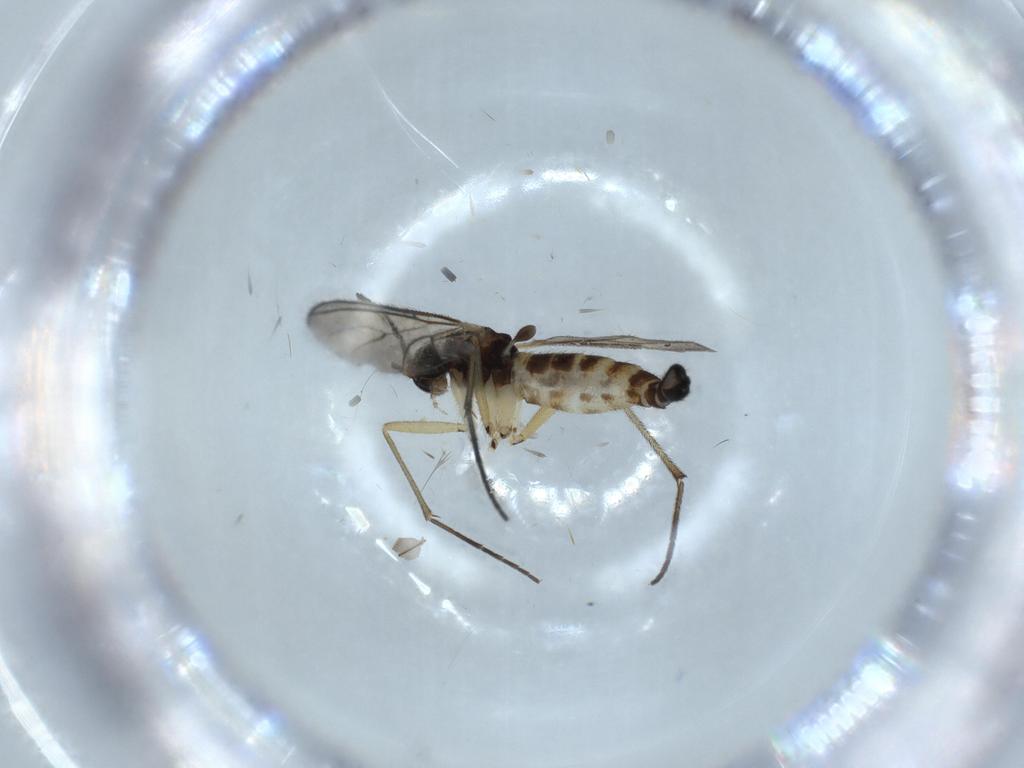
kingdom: Animalia
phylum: Arthropoda
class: Insecta
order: Diptera
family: Sciaridae
